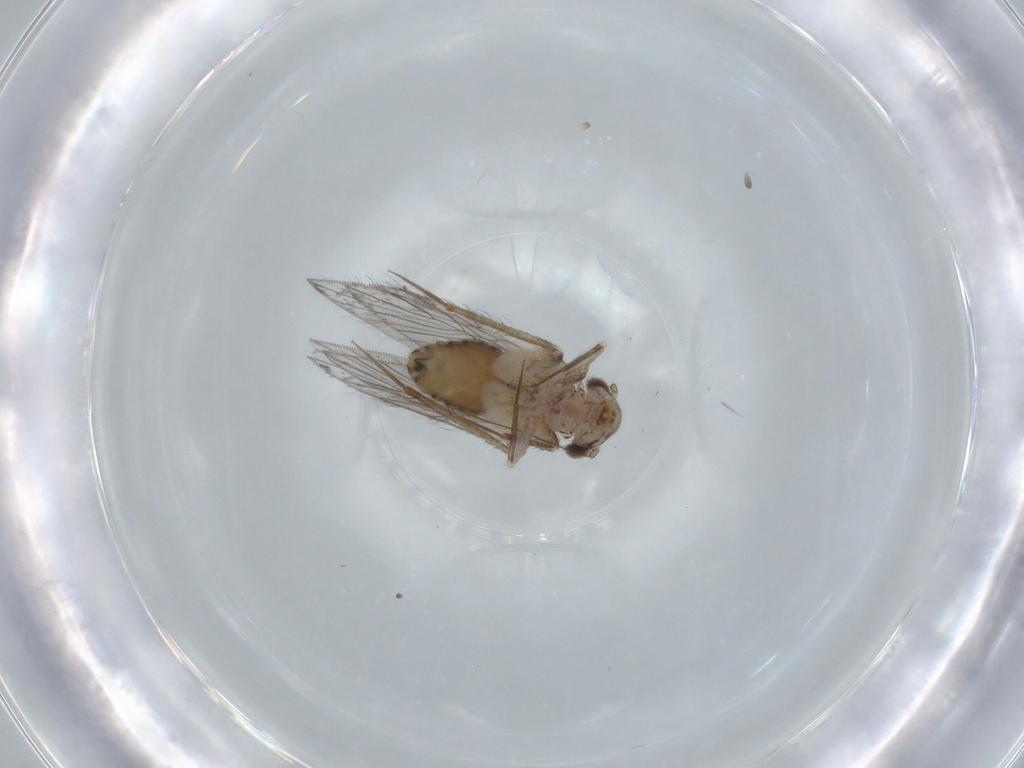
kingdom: Animalia
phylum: Arthropoda
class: Insecta
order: Psocodea
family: Lepidopsocidae
